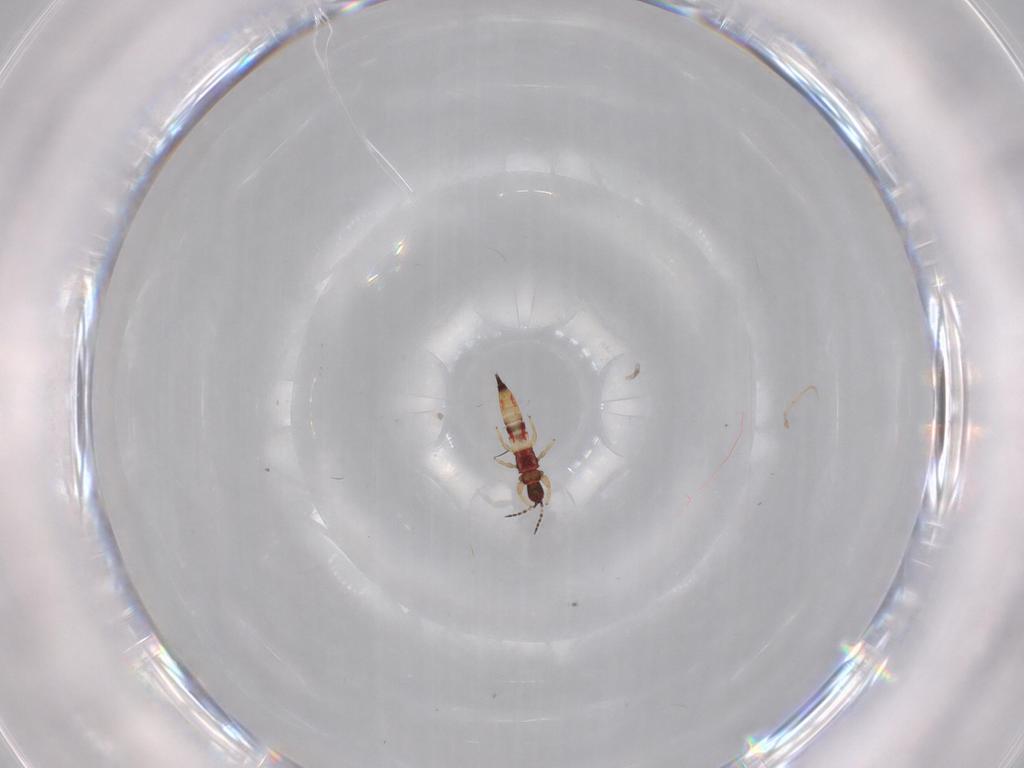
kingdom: Animalia
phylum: Arthropoda
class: Insecta
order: Thysanoptera
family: Phlaeothripidae
